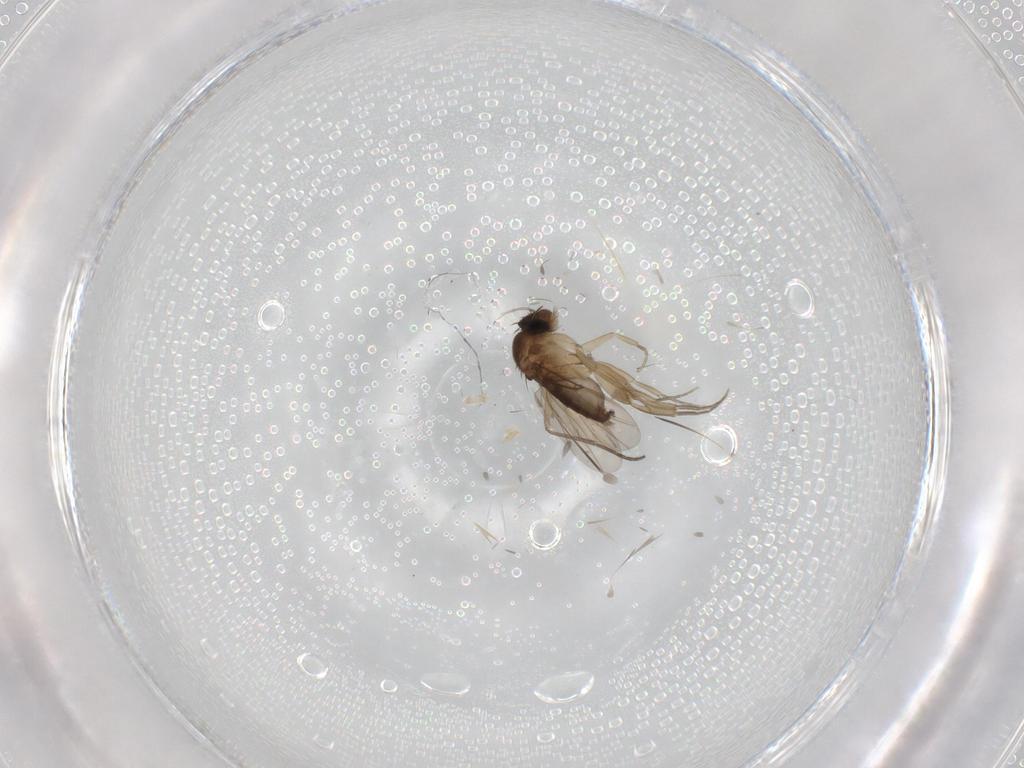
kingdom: Animalia
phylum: Arthropoda
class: Insecta
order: Diptera
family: Phoridae
